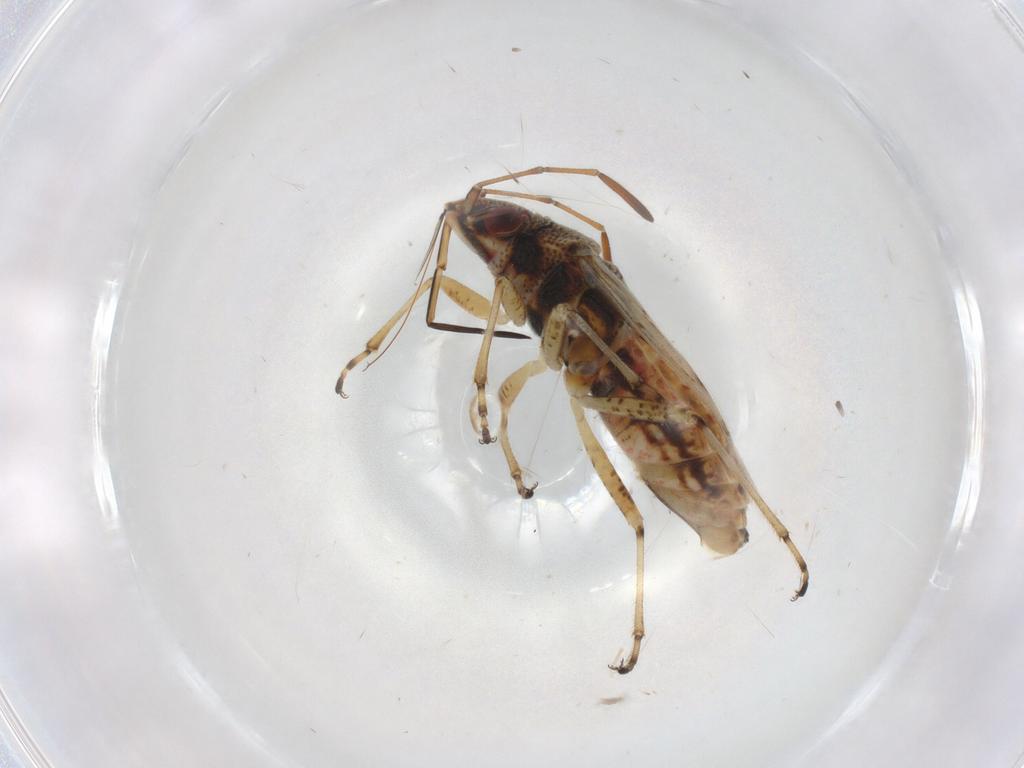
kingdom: Animalia
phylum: Arthropoda
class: Insecta
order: Hemiptera
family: Lygaeidae
